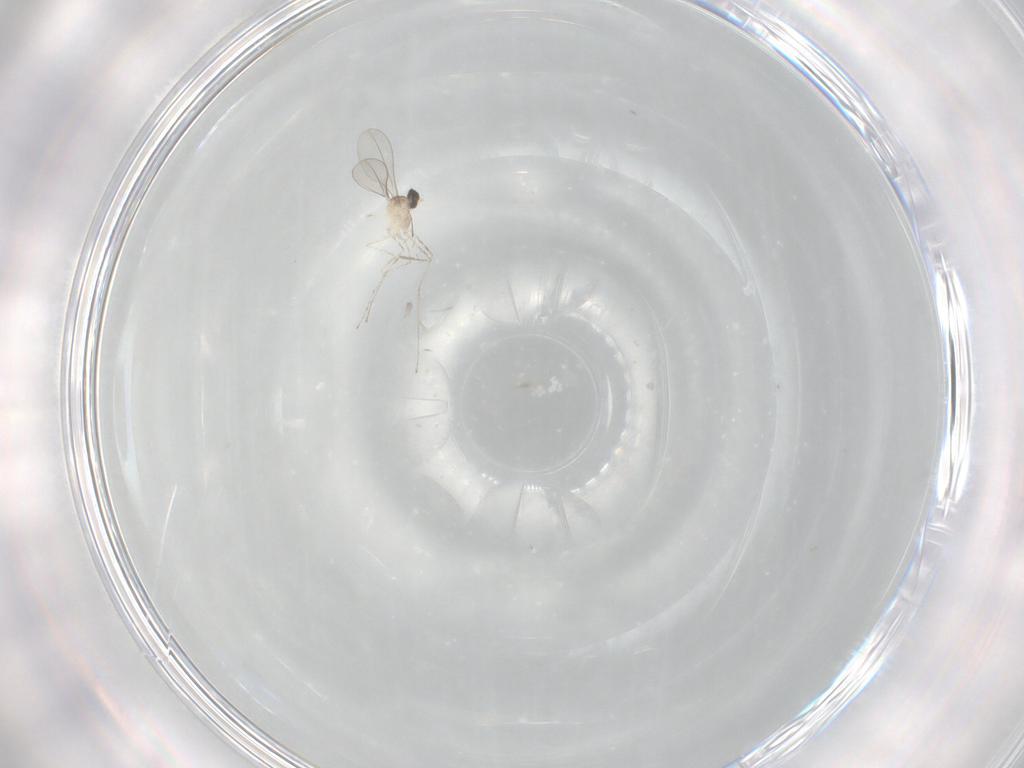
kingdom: Animalia
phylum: Arthropoda
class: Insecta
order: Diptera
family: Cecidomyiidae
